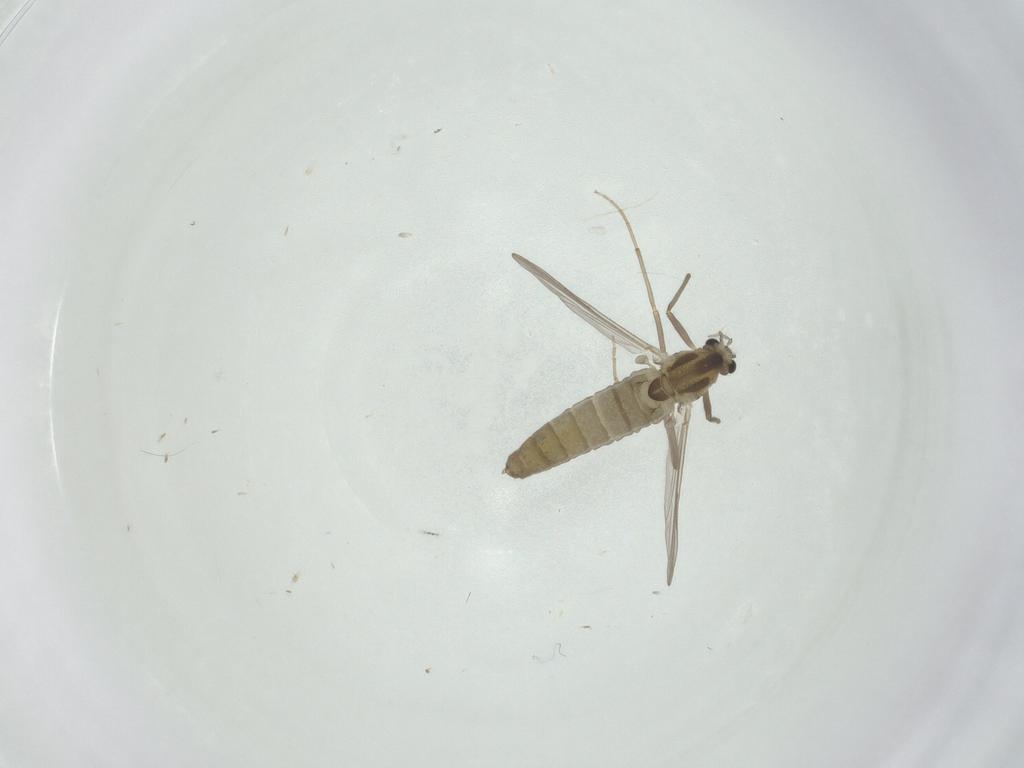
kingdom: Animalia
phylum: Arthropoda
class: Insecta
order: Diptera
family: Chironomidae
